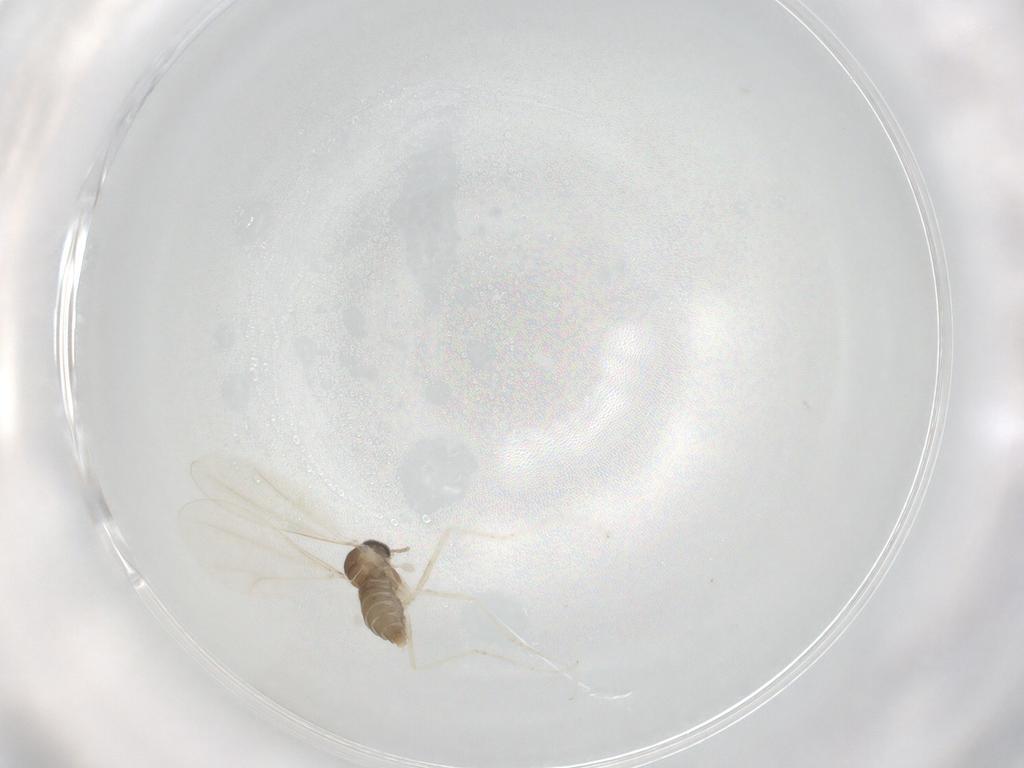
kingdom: Animalia
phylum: Arthropoda
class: Insecta
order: Diptera
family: Cecidomyiidae
